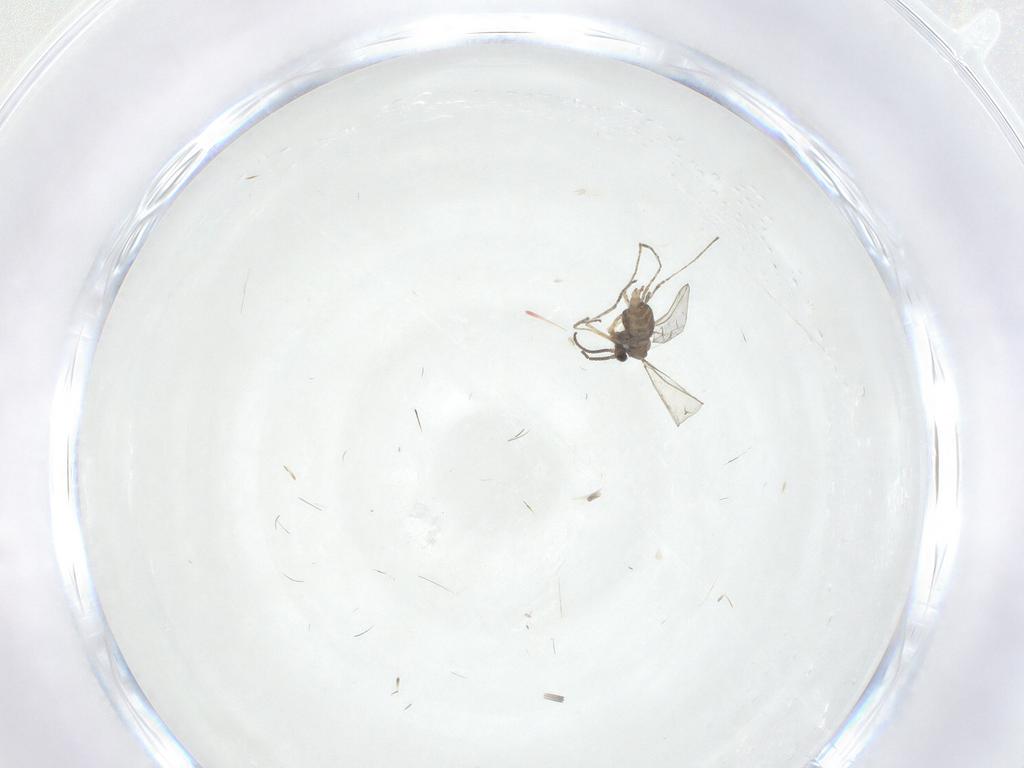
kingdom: Animalia
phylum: Arthropoda
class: Insecta
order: Diptera
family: Cecidomyiidae
